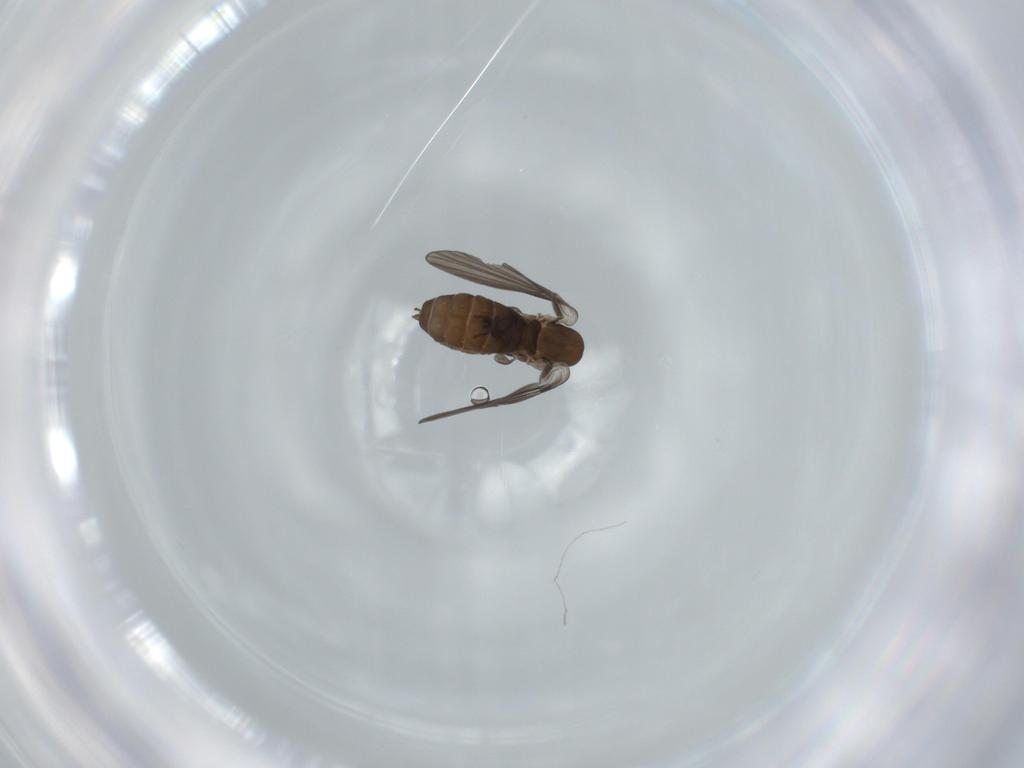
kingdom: Animalia
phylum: Arthropoda
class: Insecta
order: Diptera
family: Psychodidae
